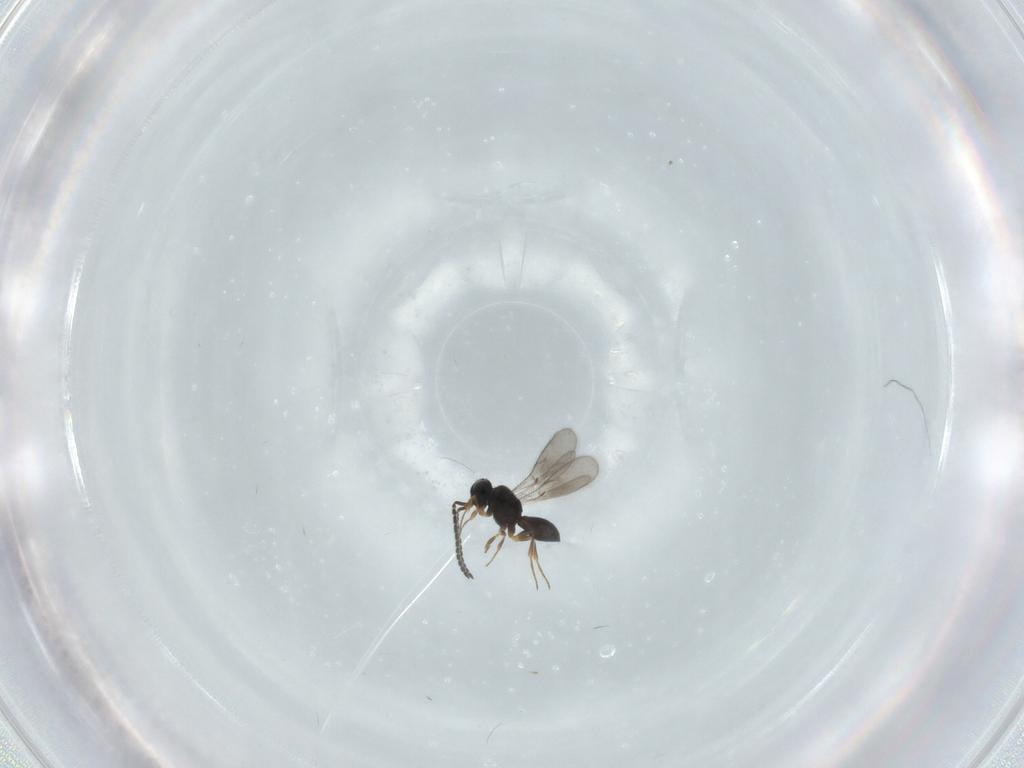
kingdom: Animalia
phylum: Arthropoda
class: Insecta
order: Hymenoptera
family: Scelionidae
